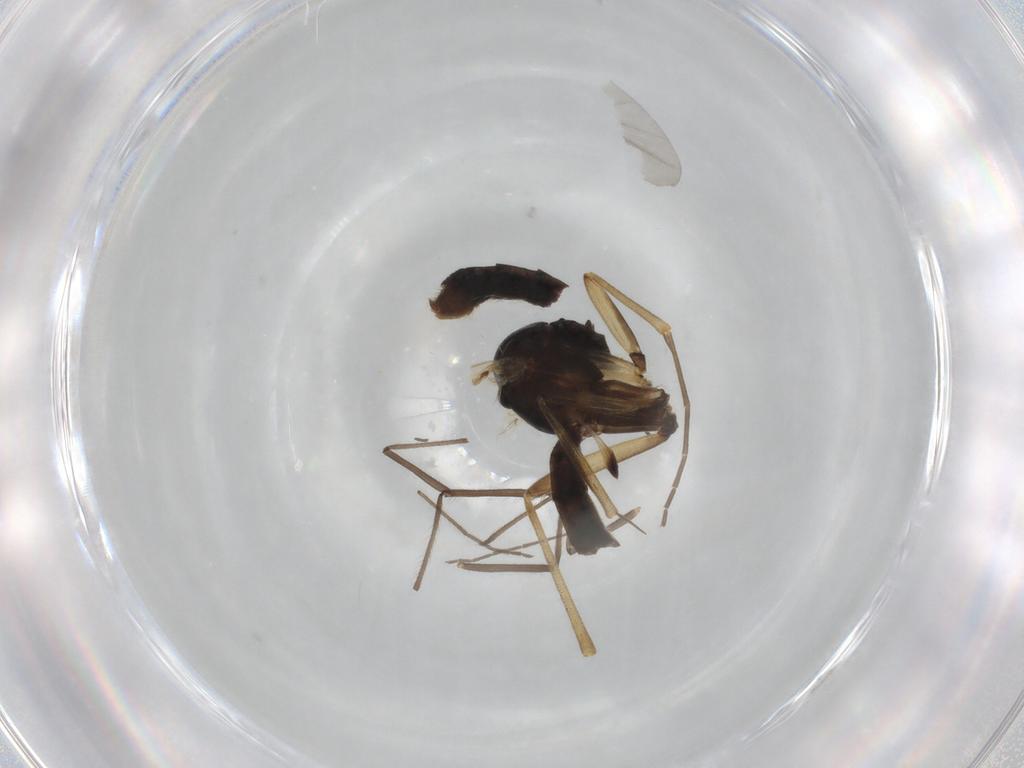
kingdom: Animalia
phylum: Arthropoda
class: Insecta
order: Diptera
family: Mycetophilidae
